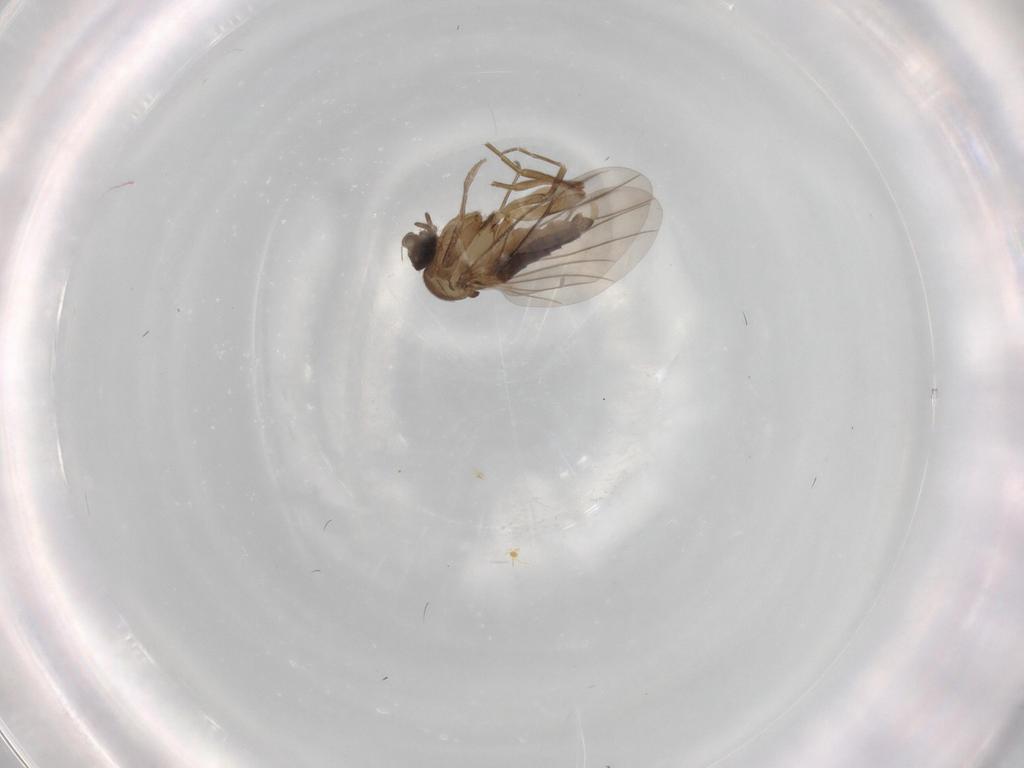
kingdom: Animalia
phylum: Arthropoda
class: Insecta
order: Diptera
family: Phoridae
